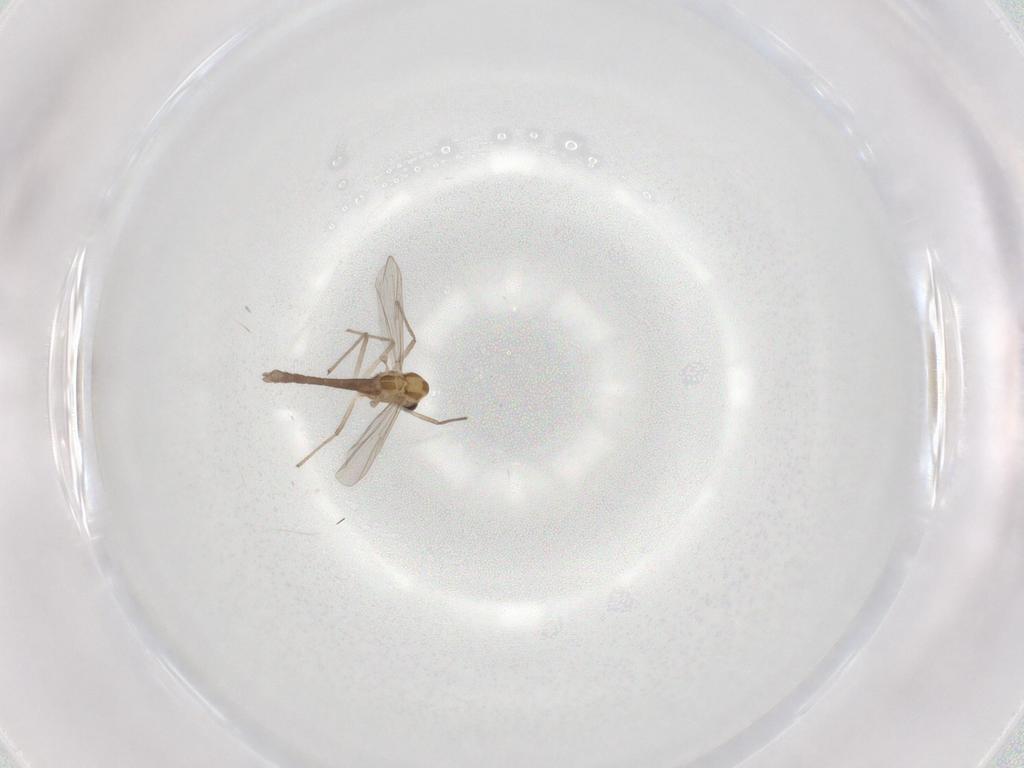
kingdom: Animalia
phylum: Arthropoda
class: Insecta
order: Diptera
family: Chironomidae
